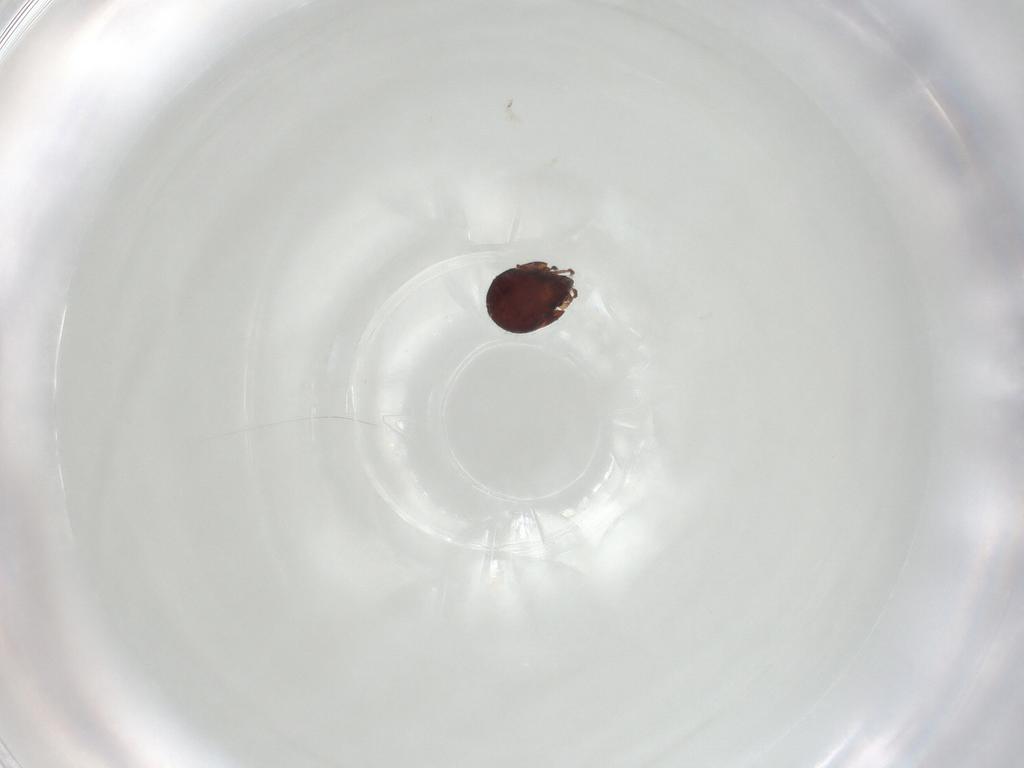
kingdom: Animalia
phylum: Arthropoda
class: Arachnida
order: Sarcoptiformes
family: Humerobatidae
